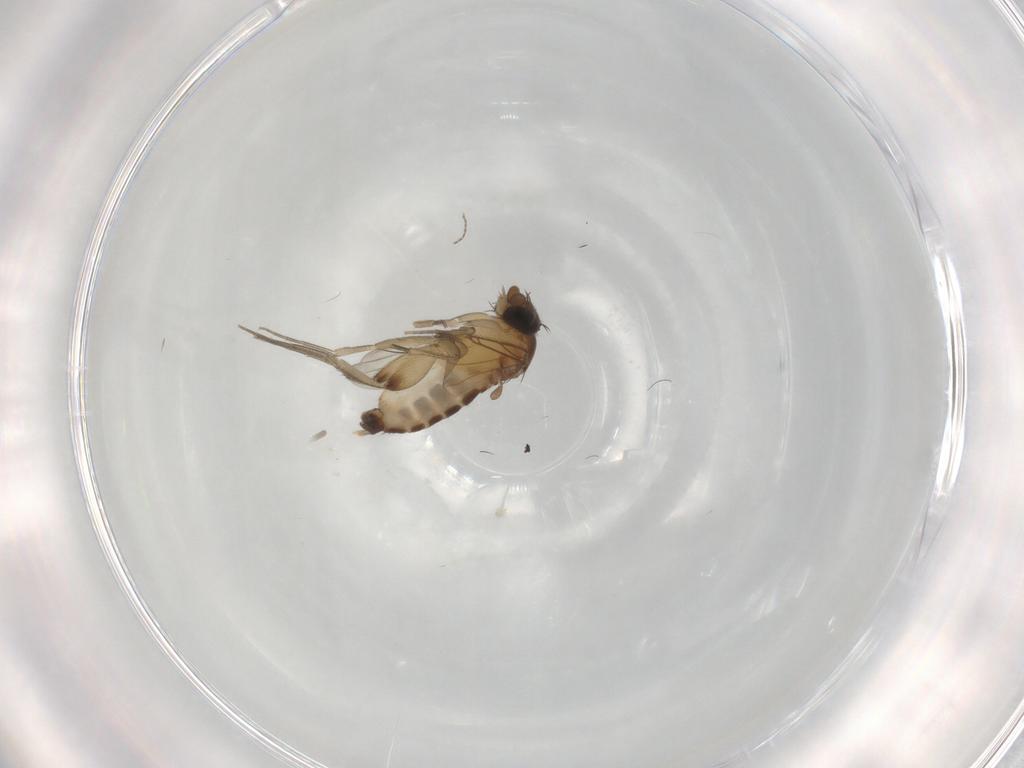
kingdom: Animalia
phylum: Arthropoda
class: Insecta
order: Diptera
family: Phoridae
